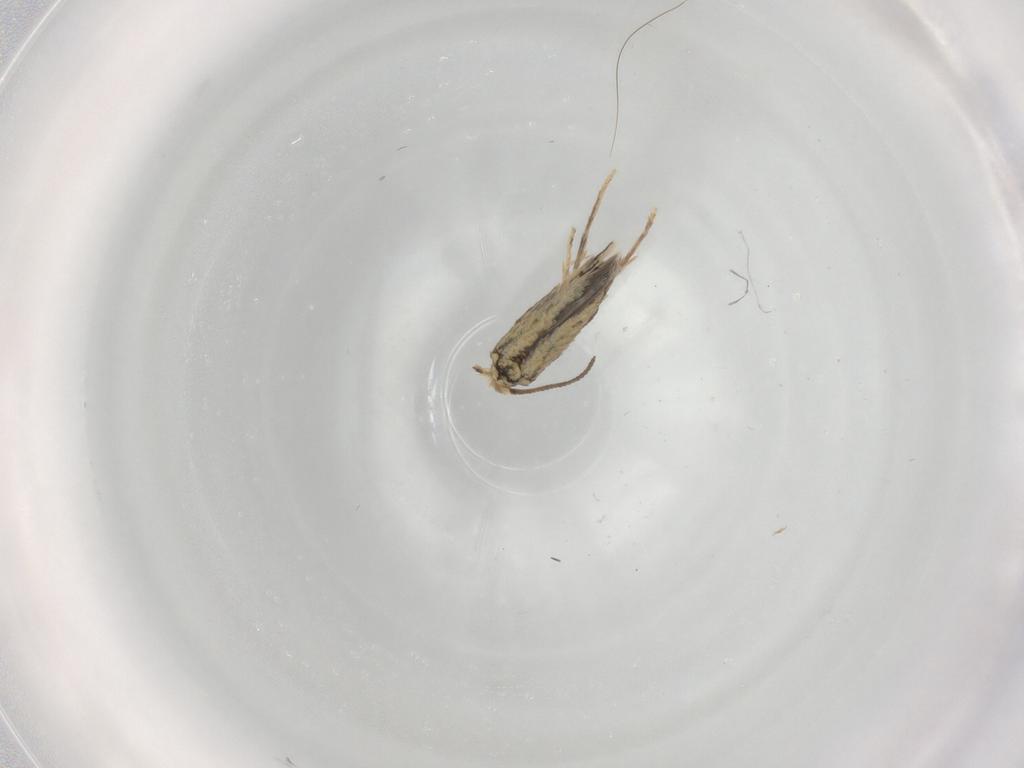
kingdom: Animalia
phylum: Arthropoda
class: Insecta
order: Lepidoptera
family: Nepticulidae
